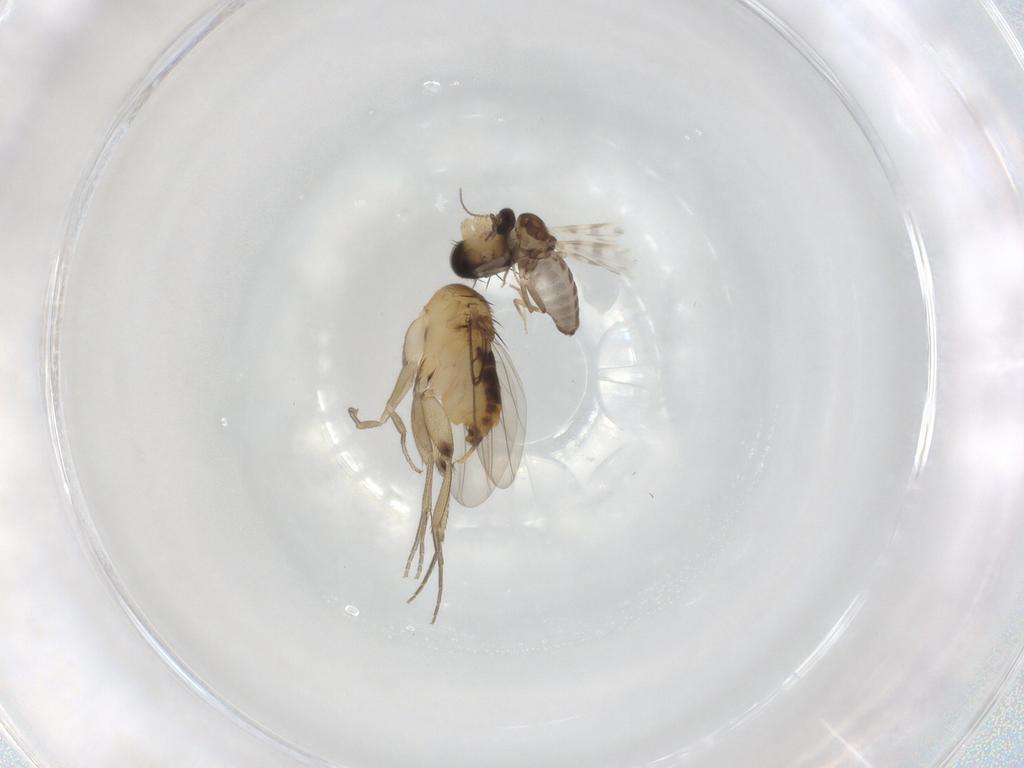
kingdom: Animalia
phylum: Arthropoda
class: Insecta
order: Diptera
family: Phoridae
